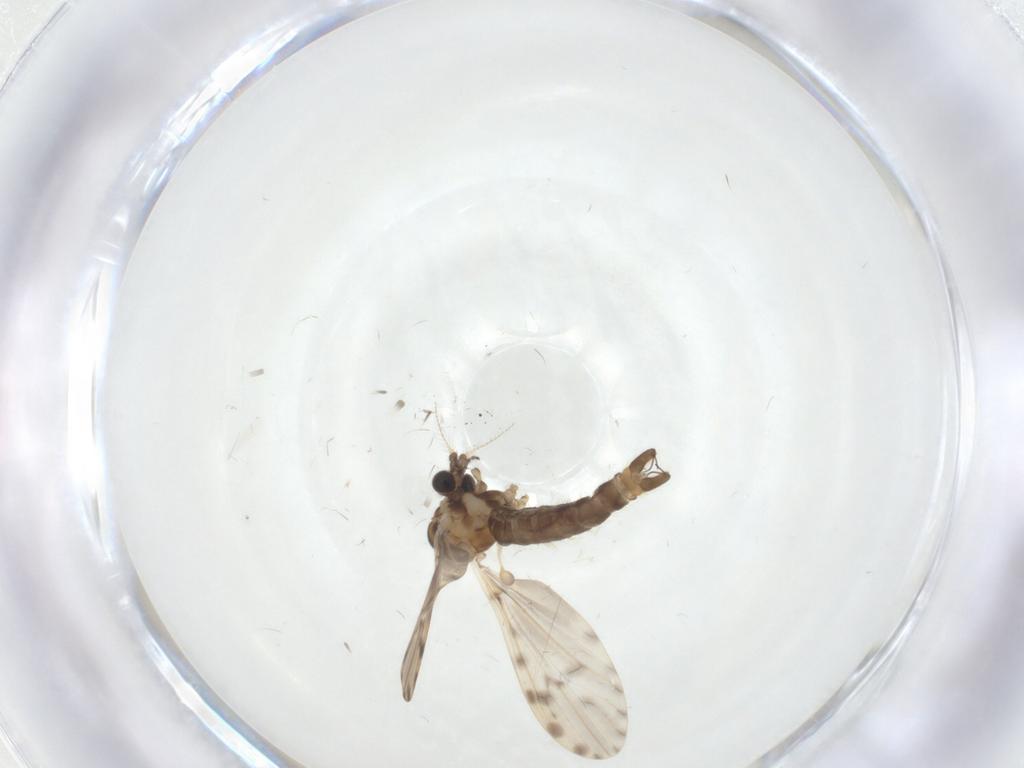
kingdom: Animalia
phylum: Arthropoda
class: Insecta
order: Diptera
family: Limoniidae
